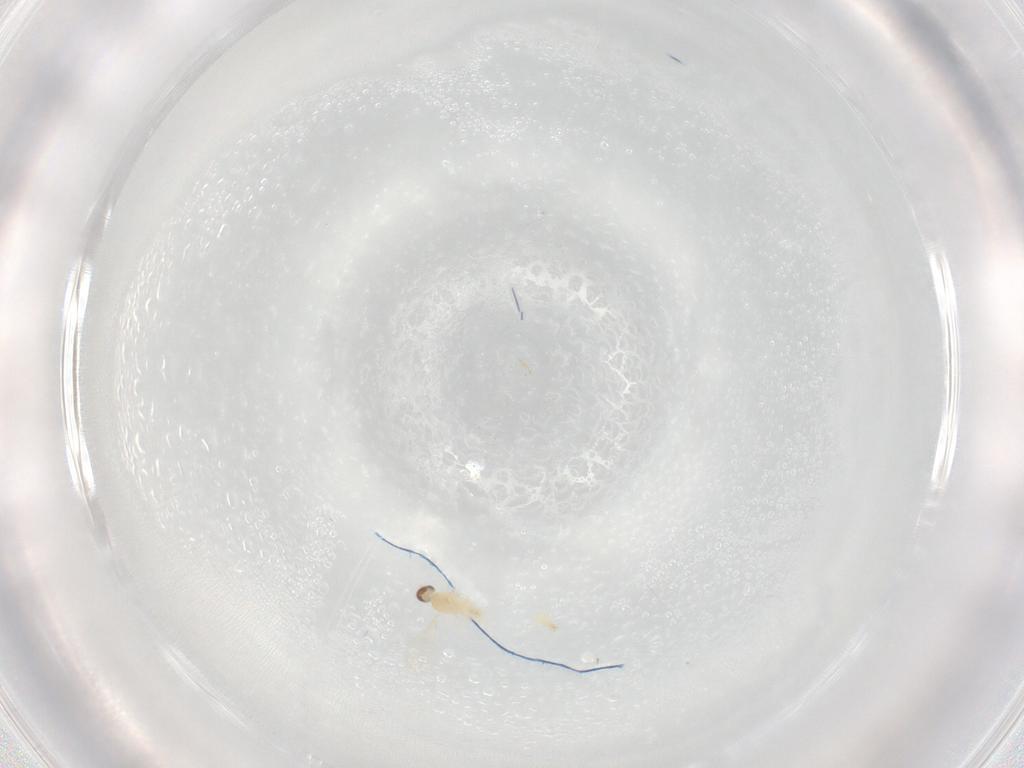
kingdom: Animalia
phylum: Arthropoda
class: Insecta
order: Diptera
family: Cecidomyiidae
